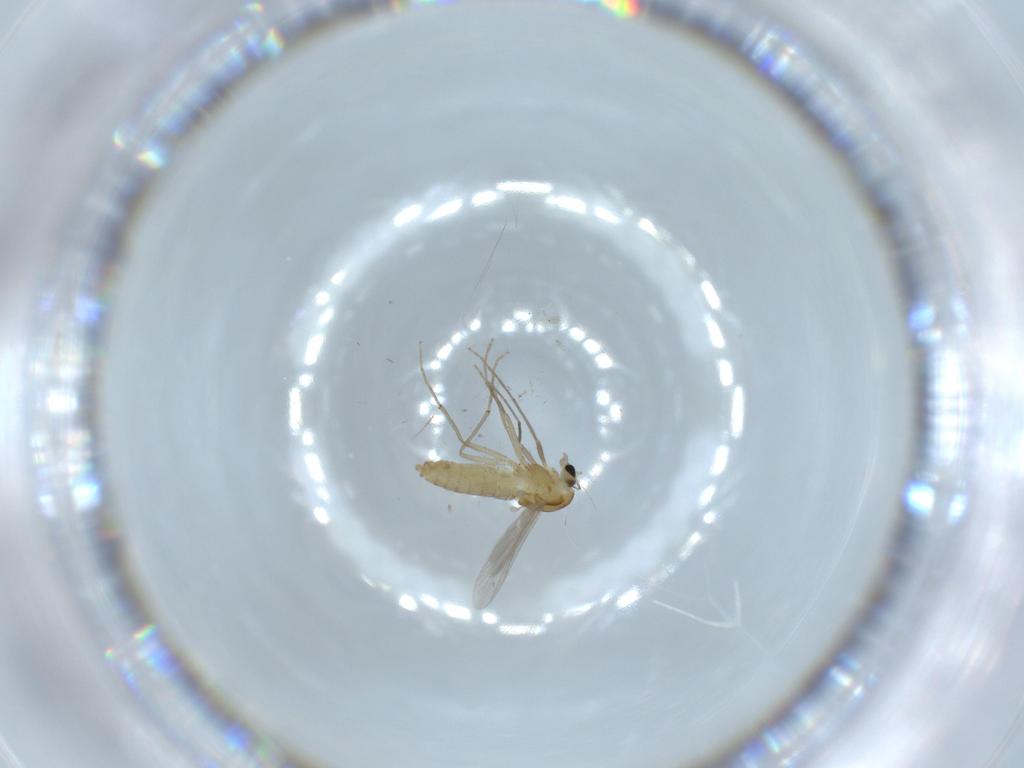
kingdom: Animalia
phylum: Arthropoda
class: Insecta
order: Diptera
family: Chironomidae
